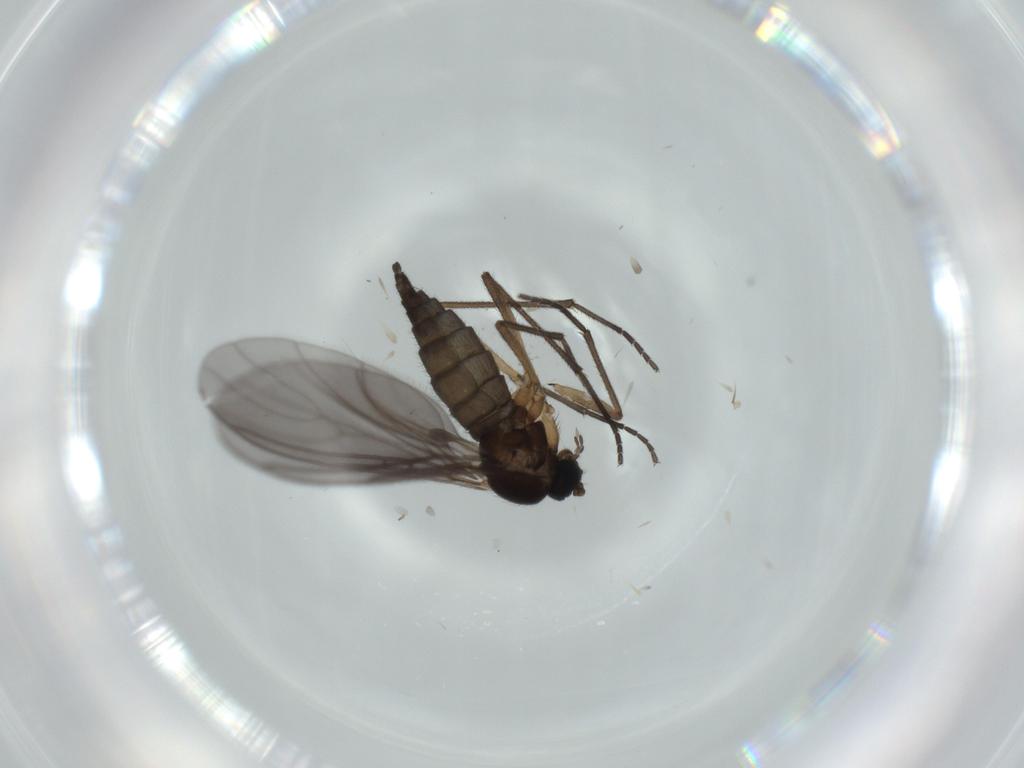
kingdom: Animalia
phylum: Arthropoda
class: Insecta
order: Diptera
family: Sciaridae
